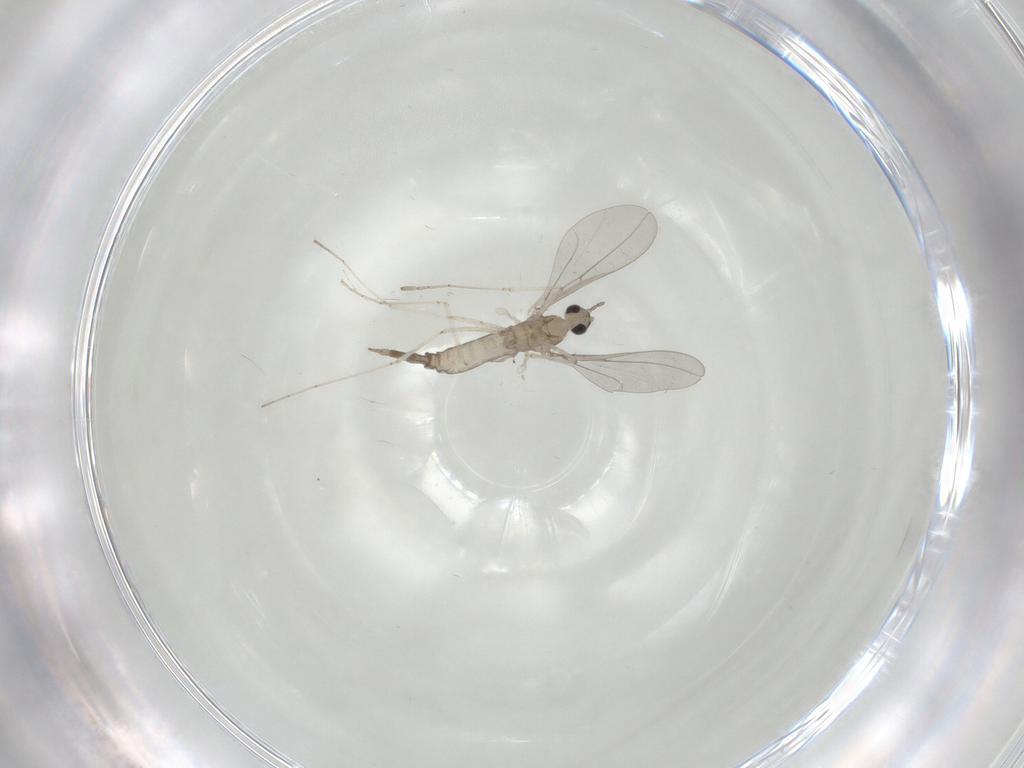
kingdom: Animalia
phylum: Arthropoda
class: Insecta
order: Diptera
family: Cecidomyiidae
